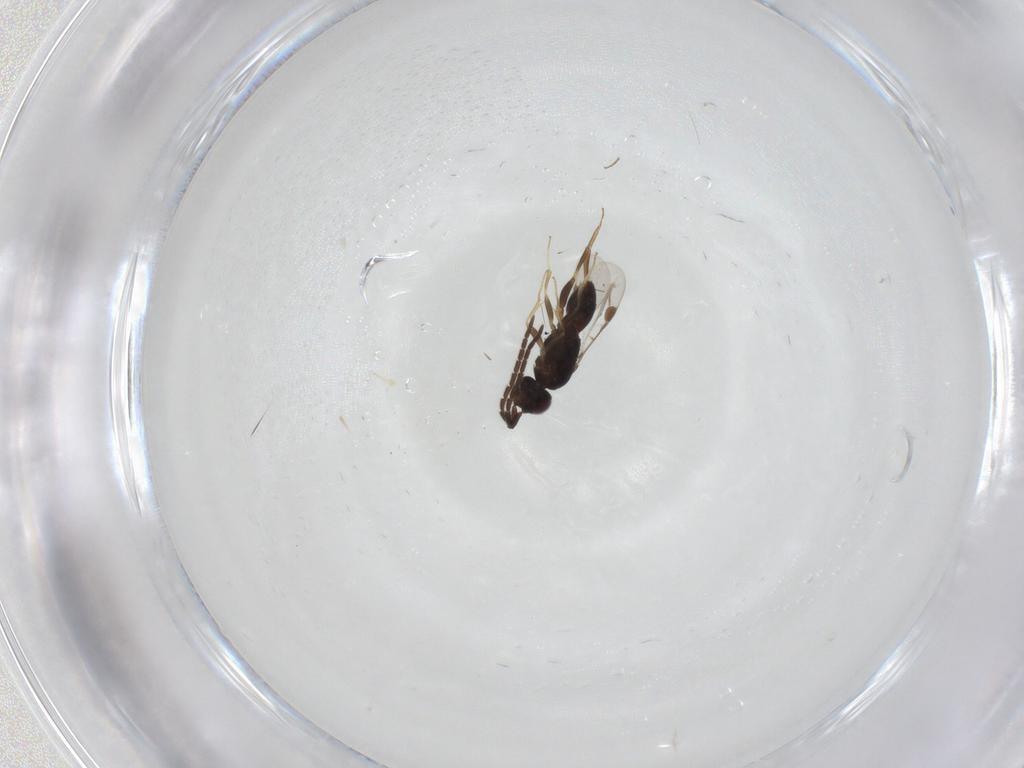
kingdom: Animalia
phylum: Arthropoda
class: Insecta
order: Hymenoptera
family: Megaspilidae
